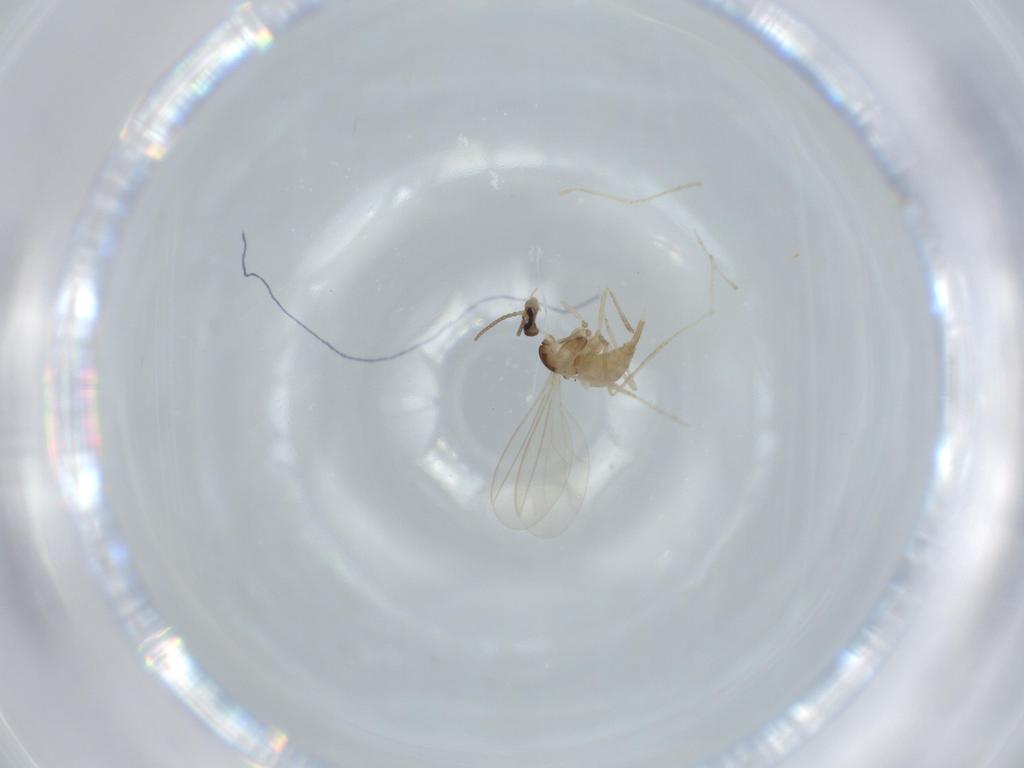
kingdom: Animalia
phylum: Arthropoda
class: Insecta
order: Diptera
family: Cecidomyiidae
